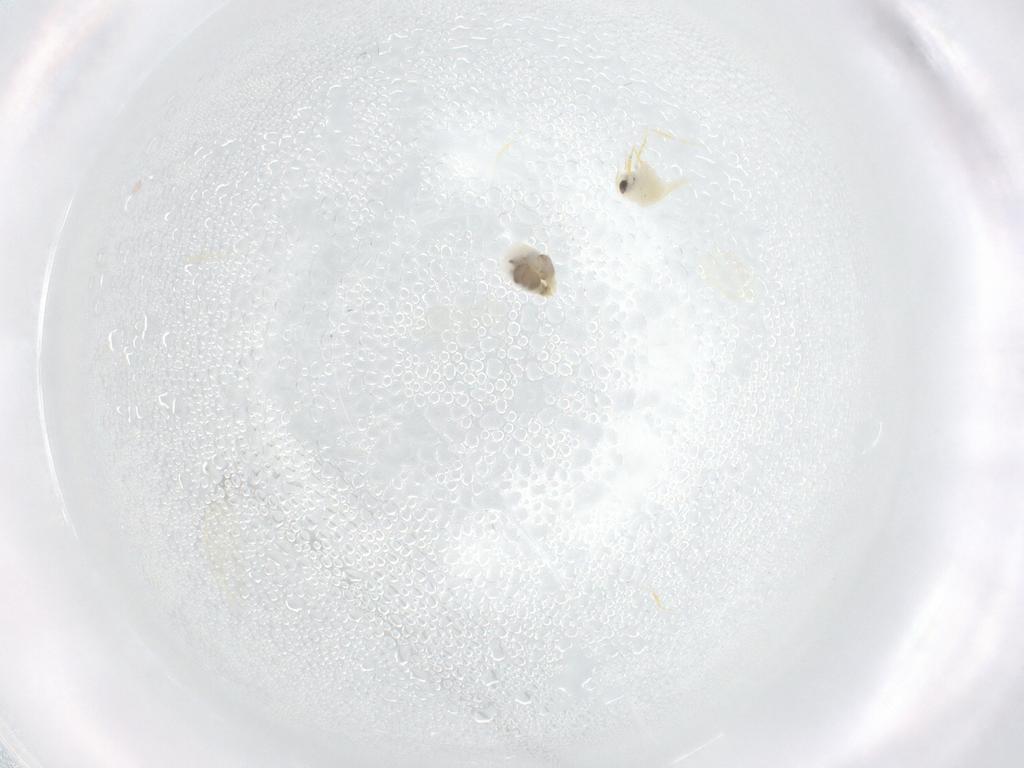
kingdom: Animalia
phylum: Arthropoda
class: Insecta
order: Hemiptera
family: Aleyrodidae
